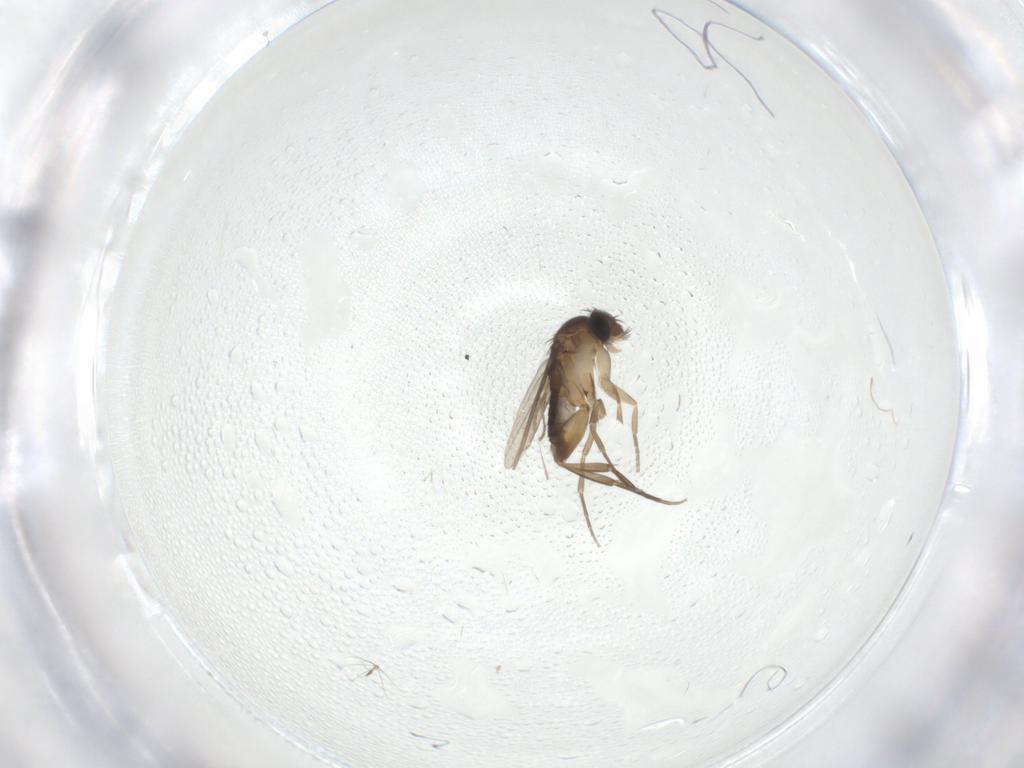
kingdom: Animalia
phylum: Arthropoda
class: Insecta
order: Diptera
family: Phoridae
